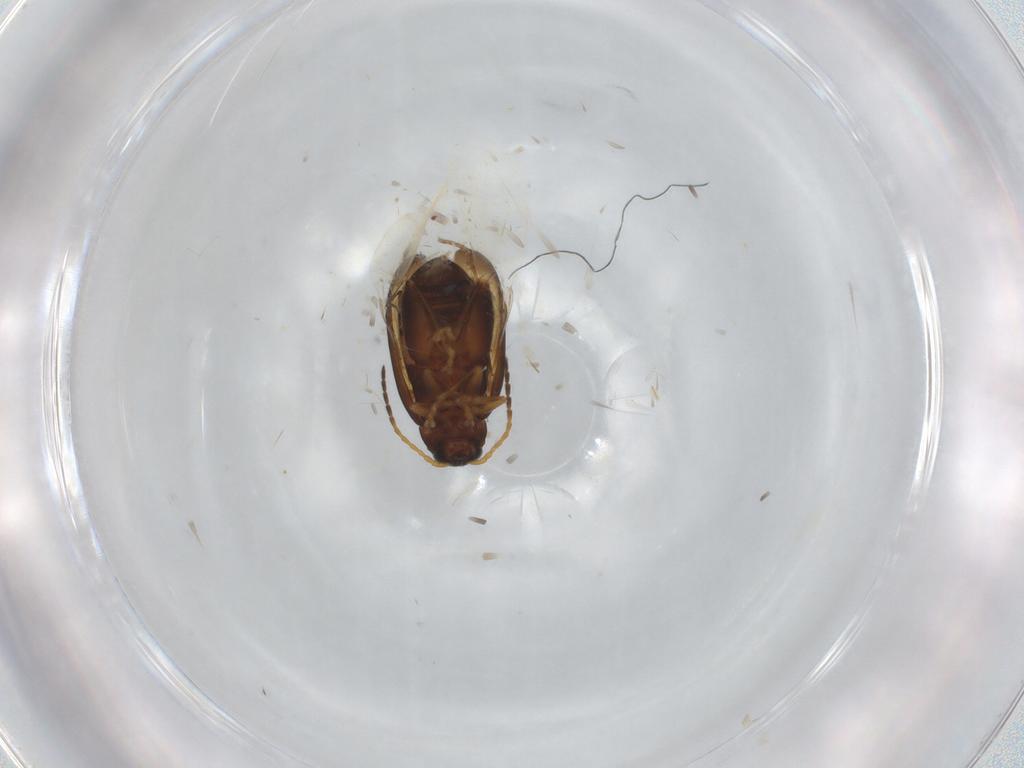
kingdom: Animalia
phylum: Arthropoda
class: Insecta
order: Coleoptera
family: Chrysomelidae
